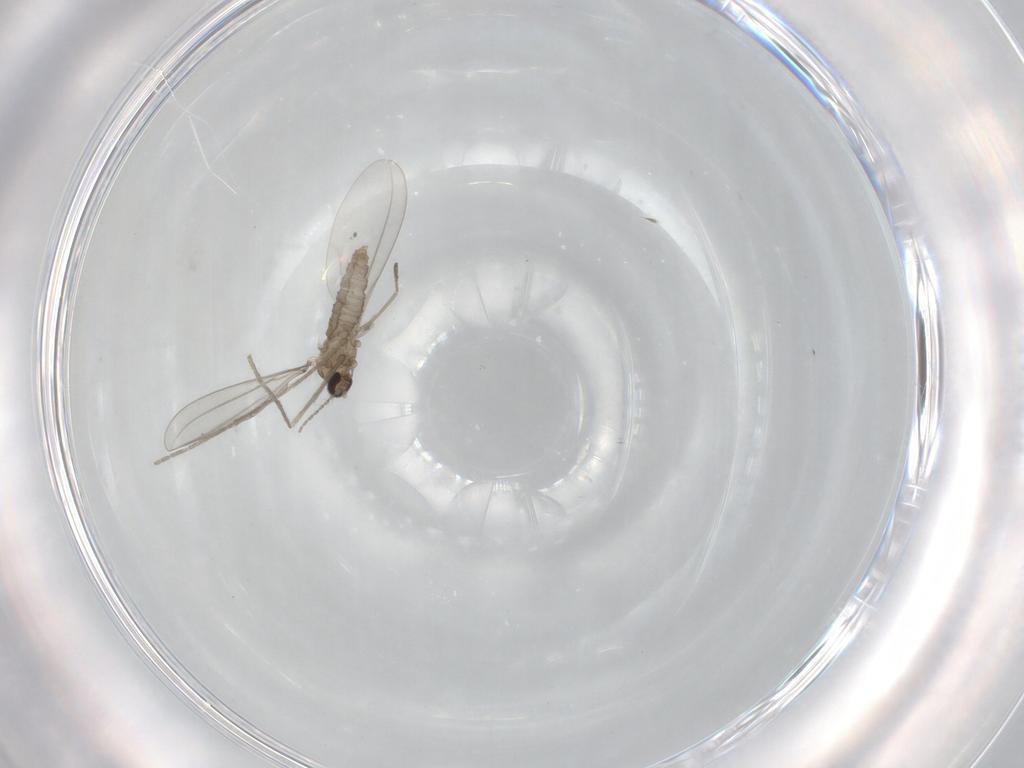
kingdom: Animalia
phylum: Arthropoda
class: Insecta
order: Diptera
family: Cecidomyiidae
